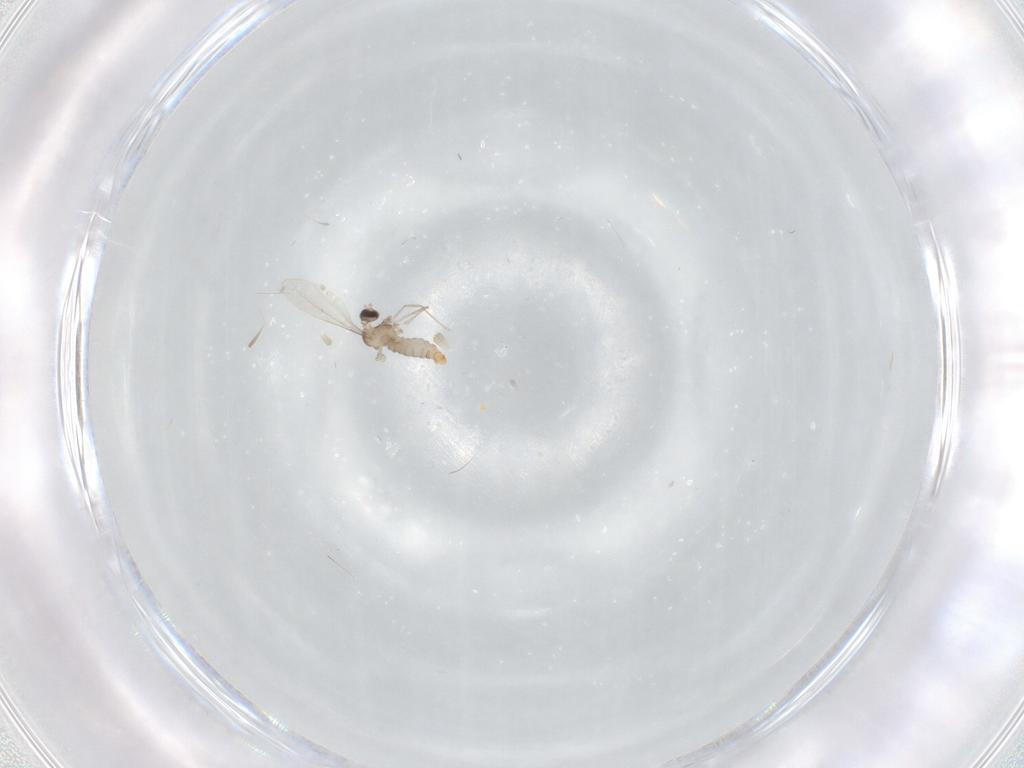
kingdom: Animalia
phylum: Arthropoda
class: Insecta
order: Diptera
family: Cecidomyiidae
